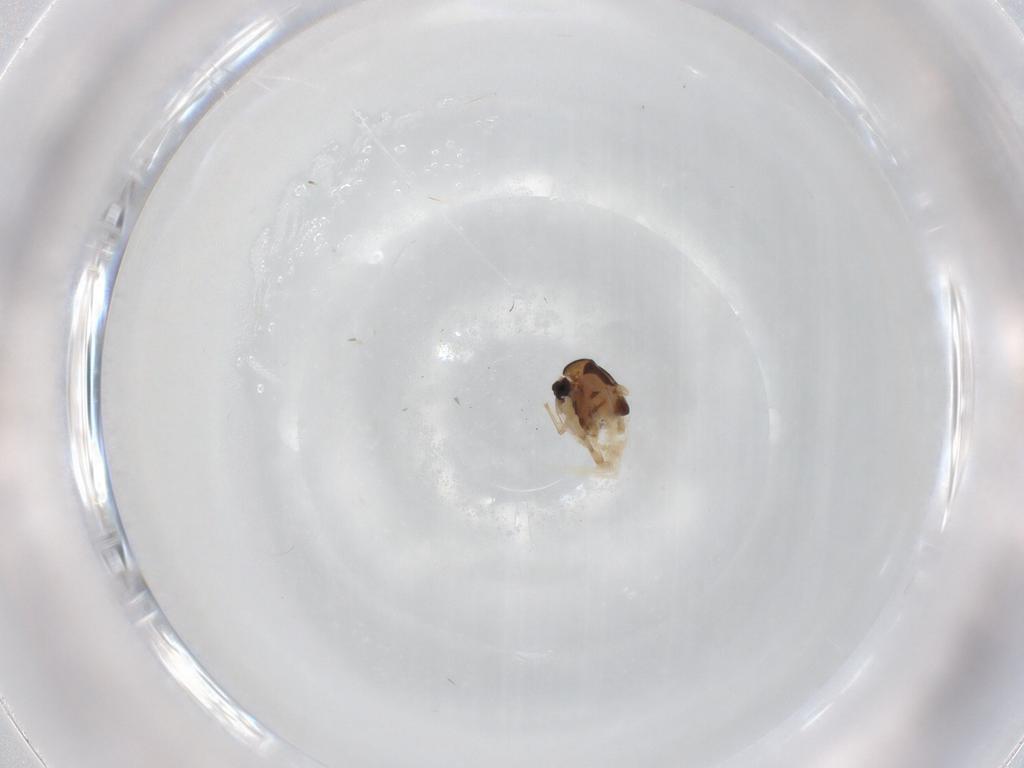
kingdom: Animalia
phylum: Arthropoda
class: Insecta
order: Diptera
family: Chironomidae
